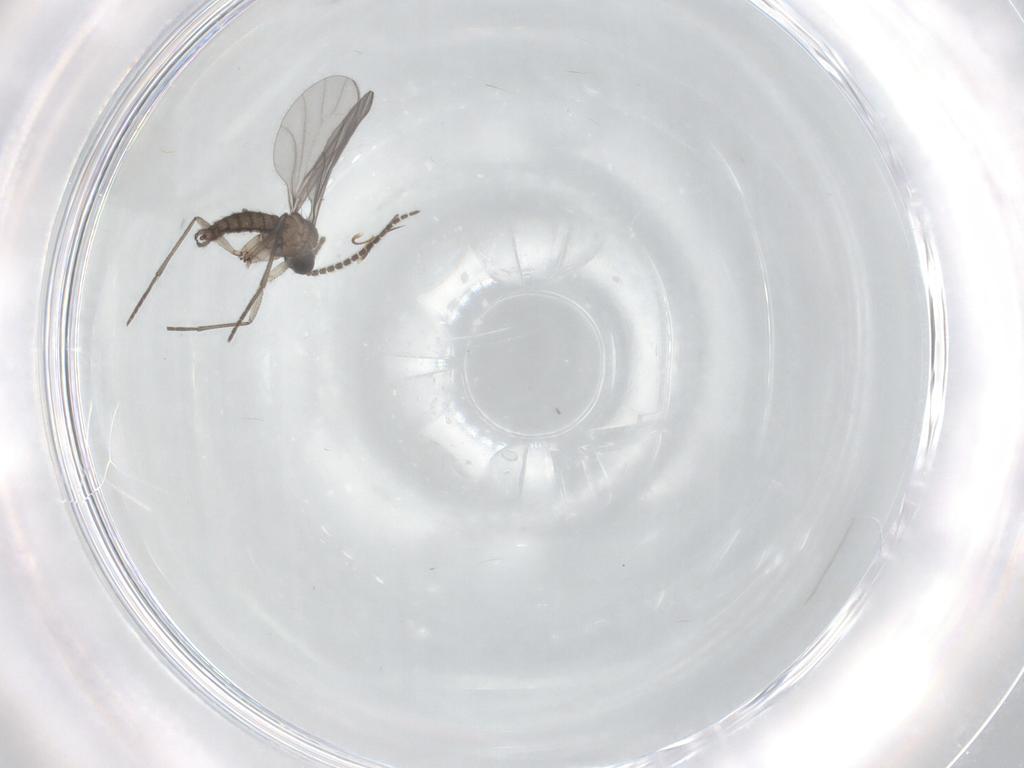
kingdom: Animalia
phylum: Arthropoda
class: Insecta
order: Diptera
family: Chironomidae
